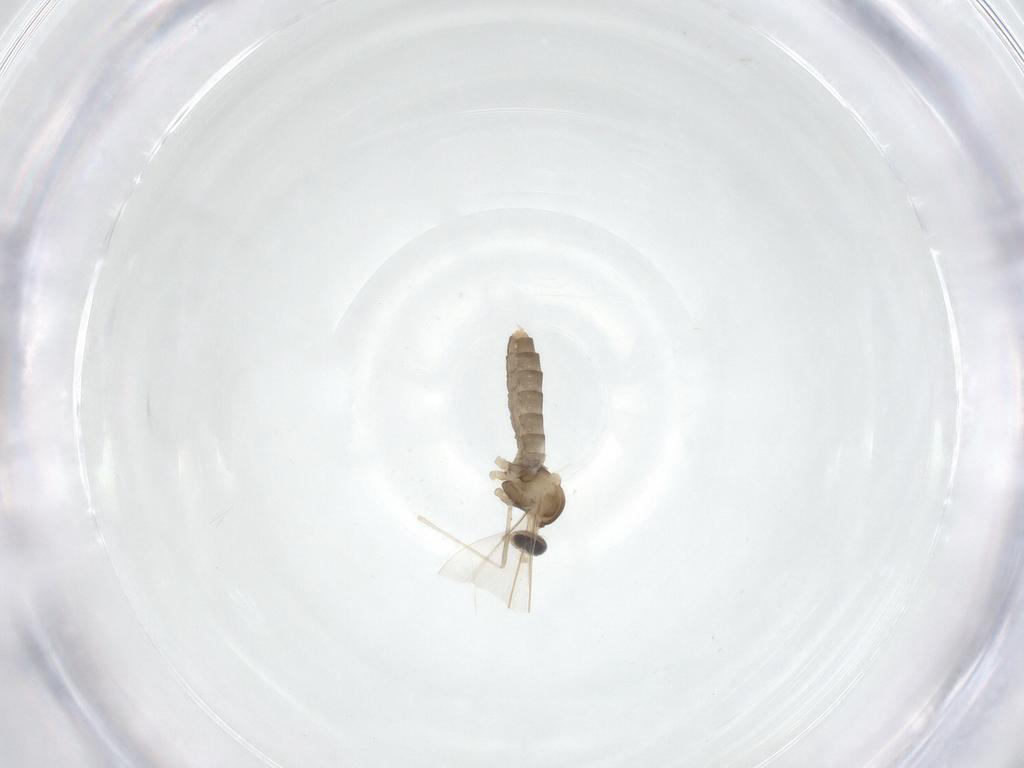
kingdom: Animalia
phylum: Arthropoda
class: Insecta
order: Diptera
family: Cecidomyiidae
